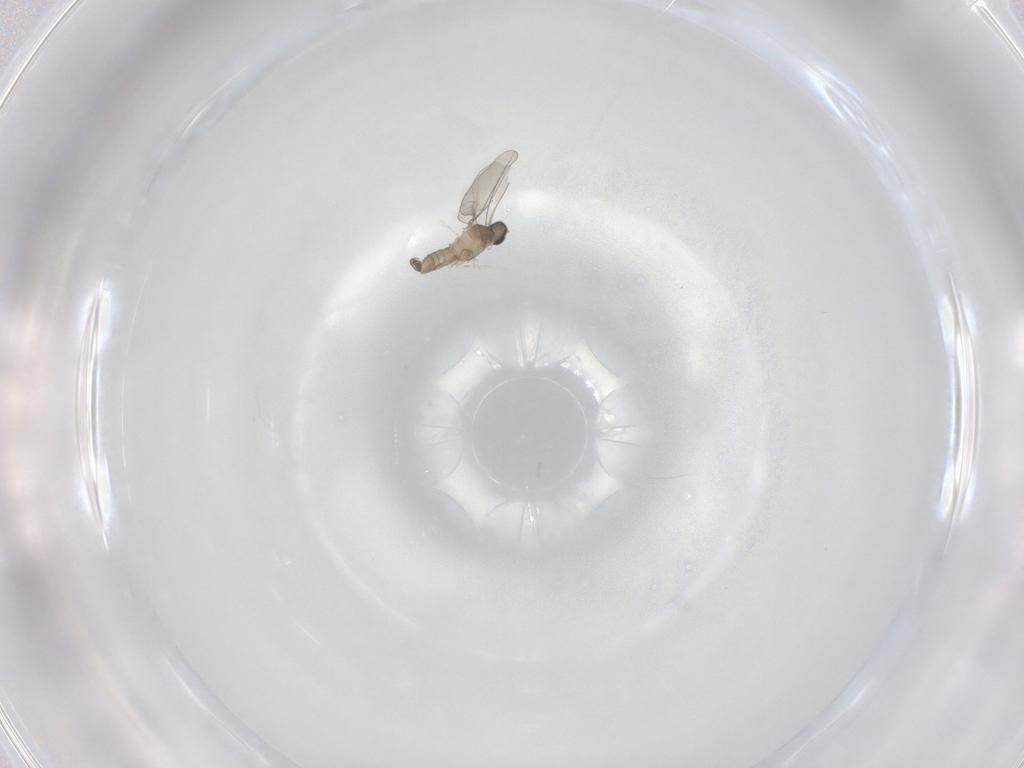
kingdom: Animalia
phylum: Arthropoda
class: Insecta
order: Diptera
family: Cecidomyiidae
